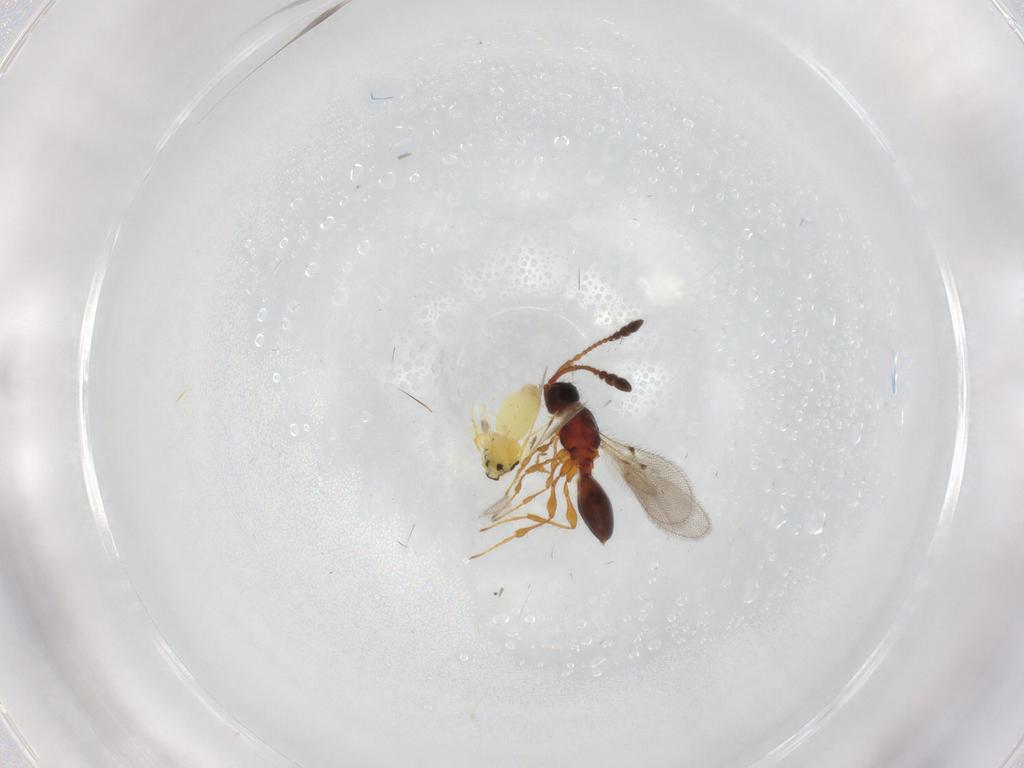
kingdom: Animalia
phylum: Arthropoda
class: Insecta
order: Hemiptera
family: Aleyrodidae
